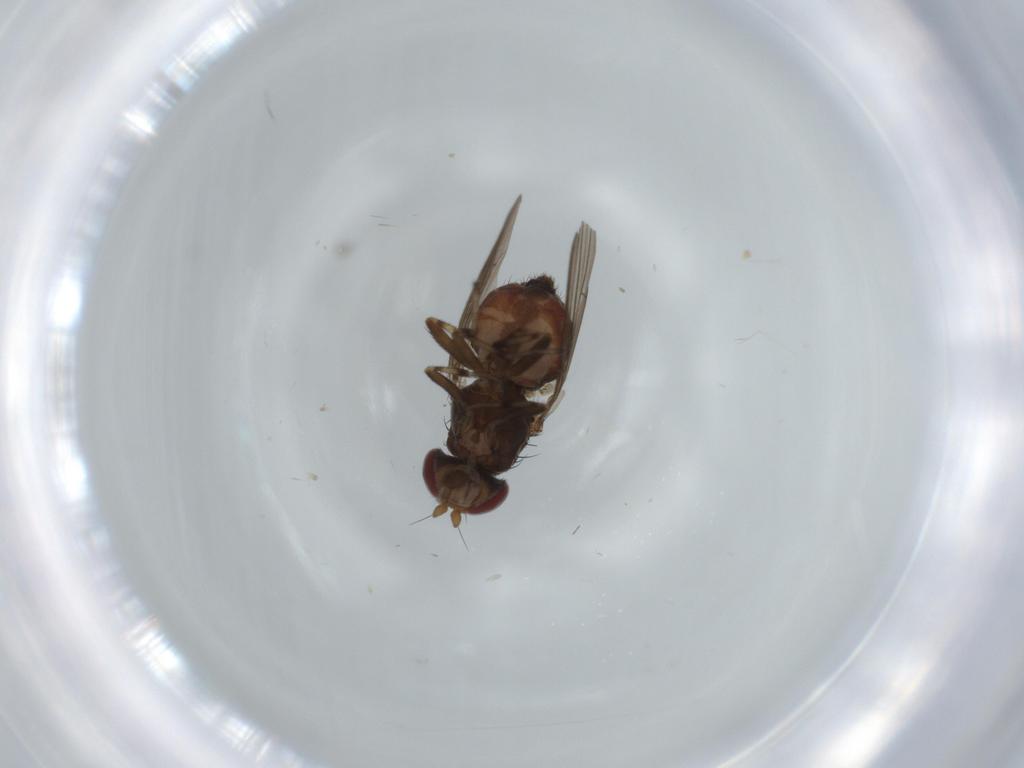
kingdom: Animalia
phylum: Arthropoda
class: Insecta
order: Diptera
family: Heleomyzidae
